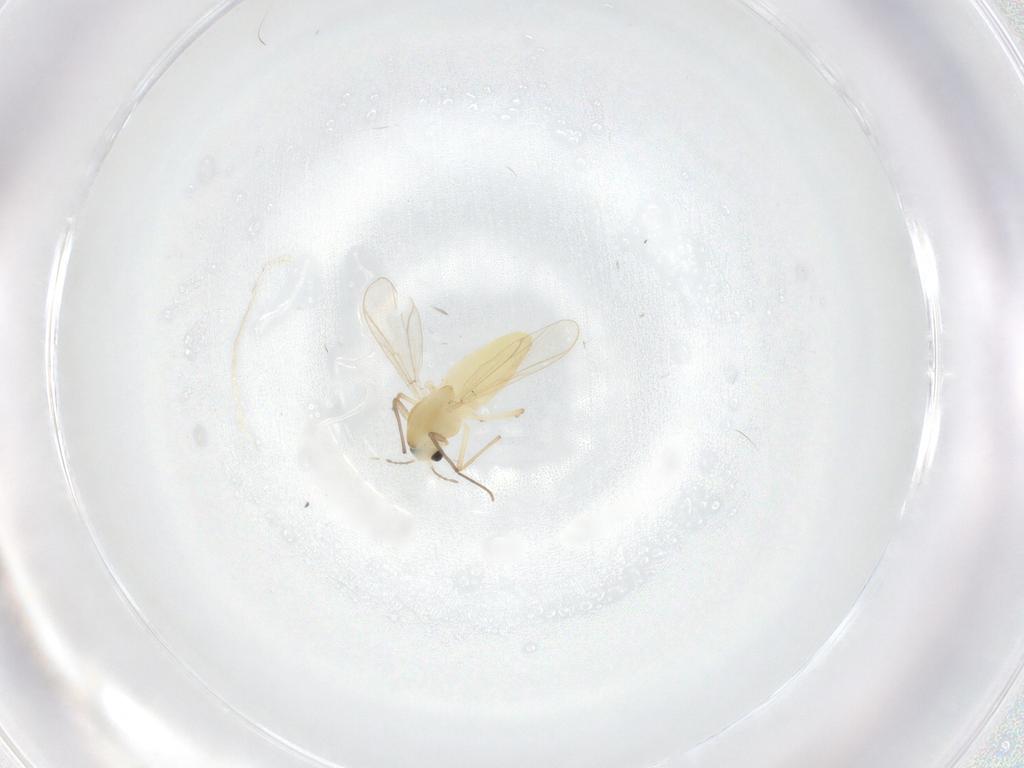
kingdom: Animalia
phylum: Arthropoda
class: Insecta
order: Diptera
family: Chironomidae
